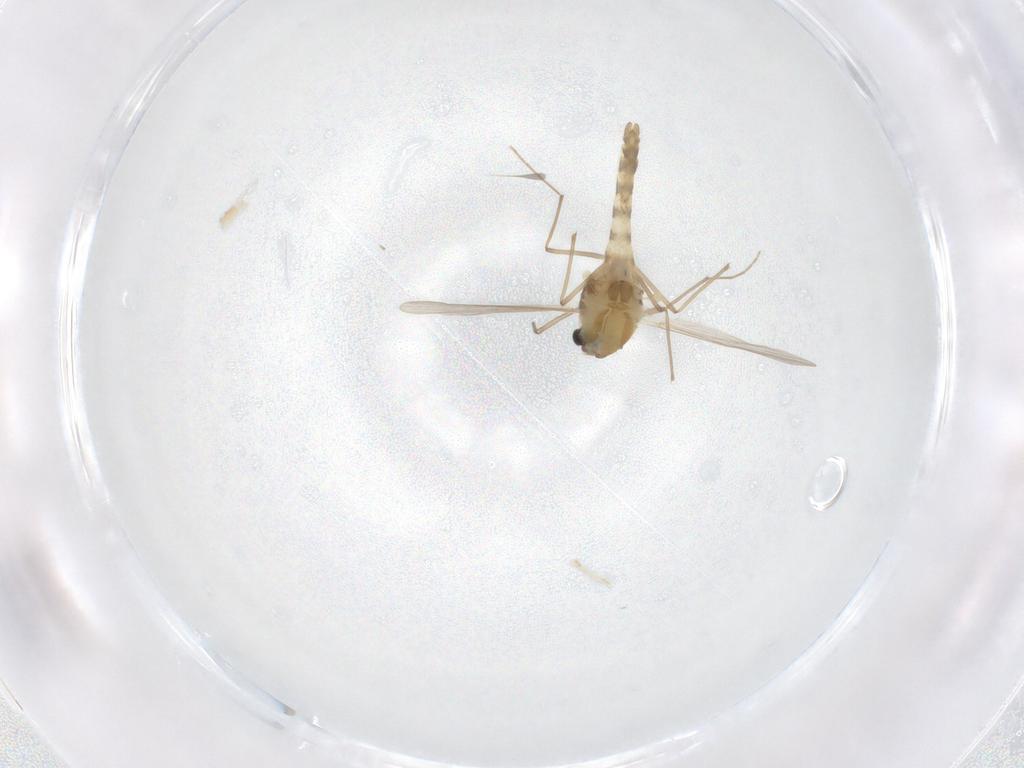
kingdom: Animalia
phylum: Arthropoda
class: Insecta
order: Diptera
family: Chironomidae
